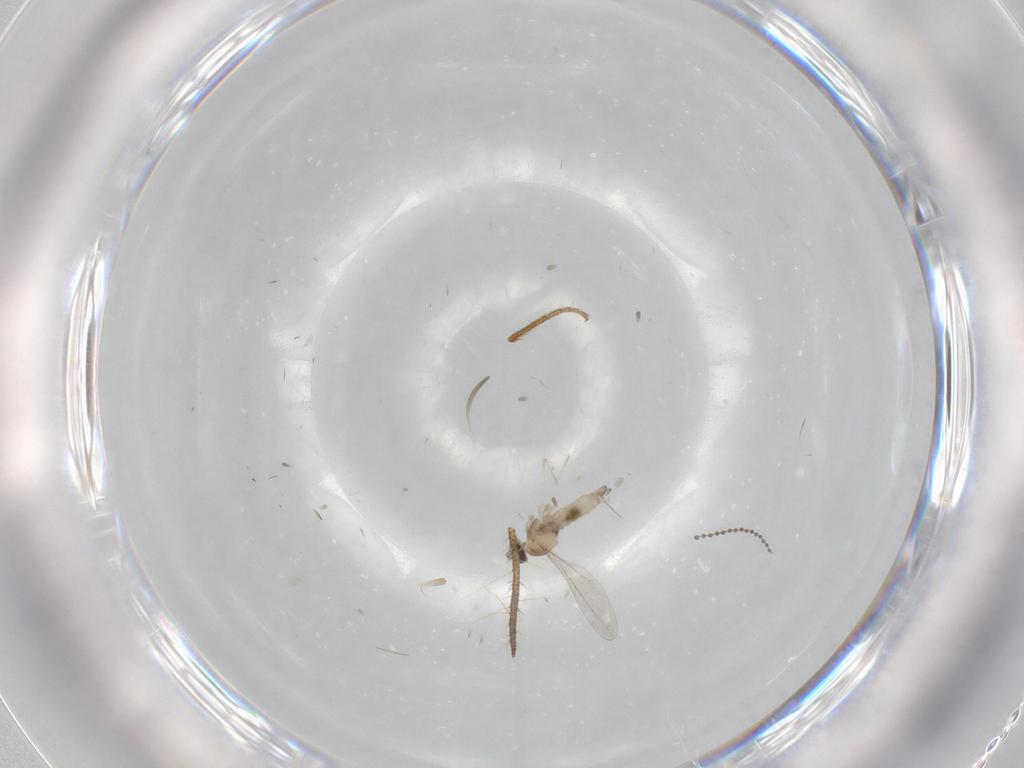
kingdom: Animalia
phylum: Arthropoda
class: Insecta
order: Diptera
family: Cecidomyiidae
